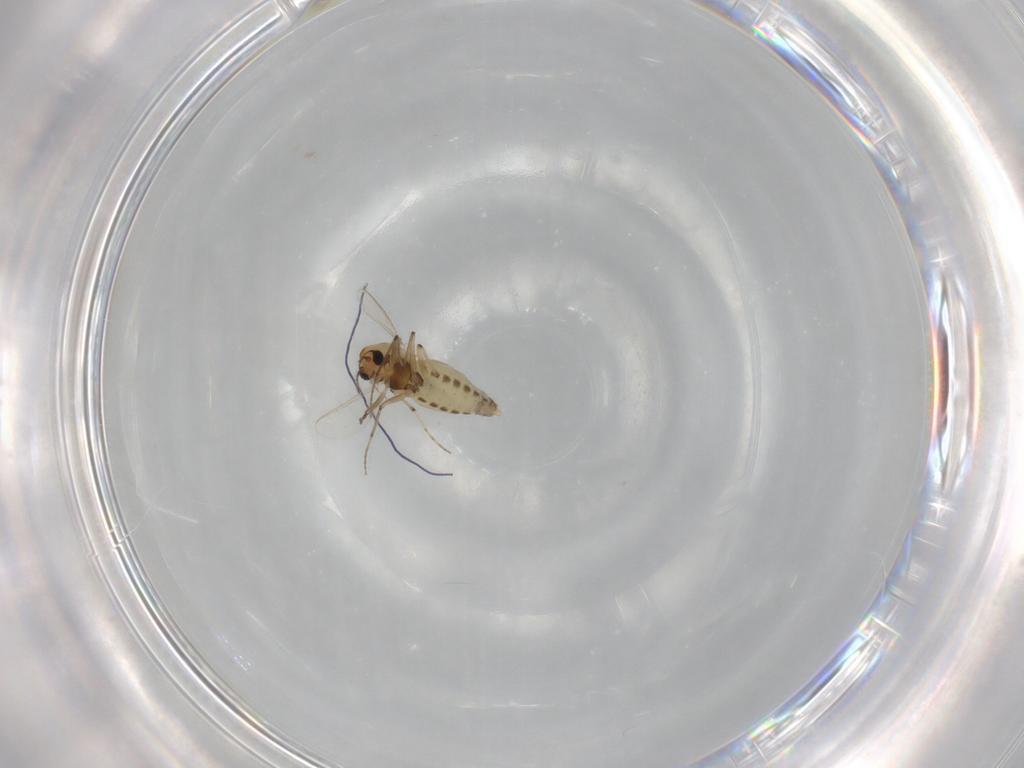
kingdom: Animalia
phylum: Arthropoda
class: Insecta
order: Diptera
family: Chironomidae
